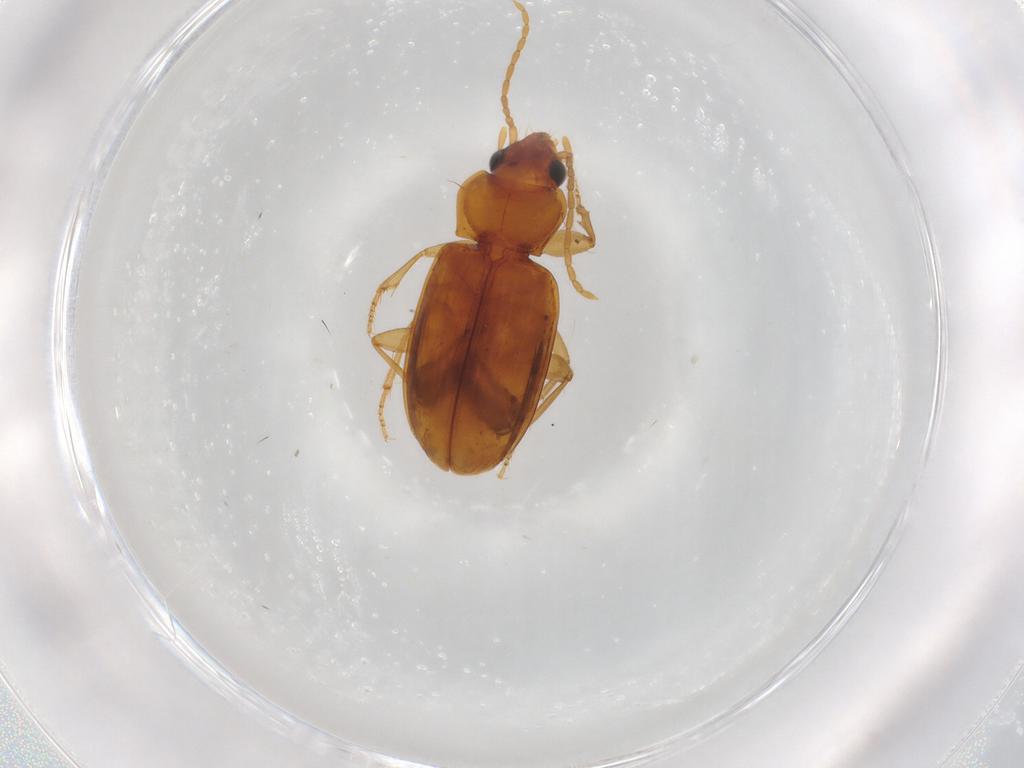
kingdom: Animalia
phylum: Arthropoda
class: Insecta
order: Coleoptera
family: Carabidae
